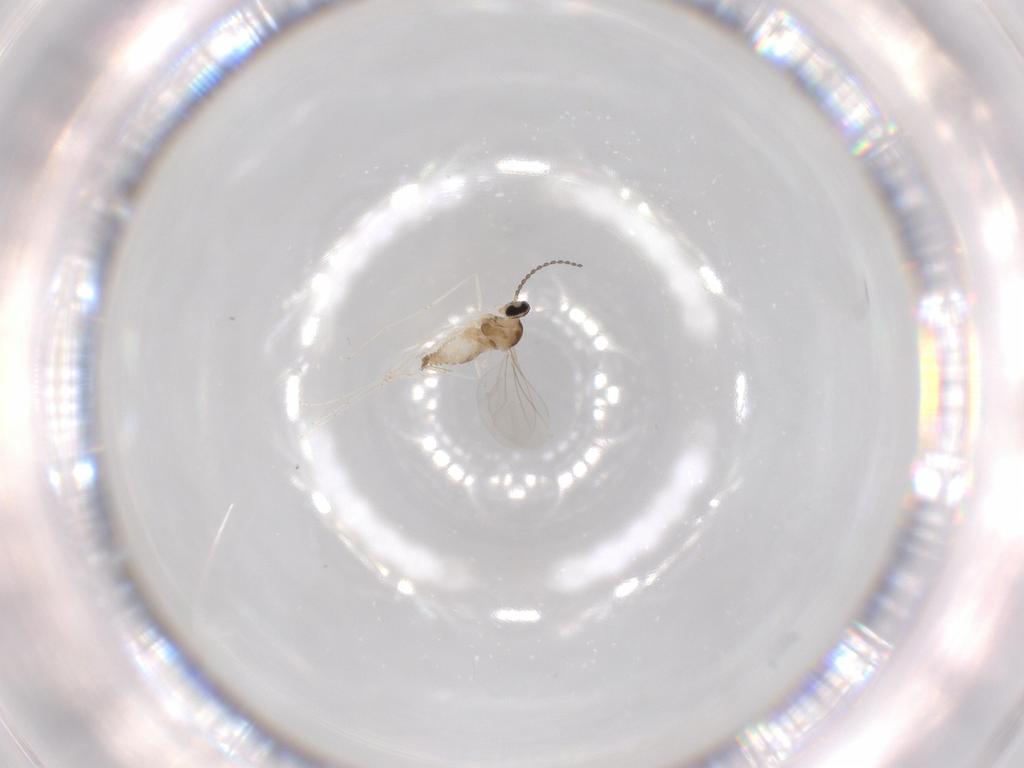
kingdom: Animalia
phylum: Arthropoda
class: Insecta
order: Diptera
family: Cecidomyiidae
